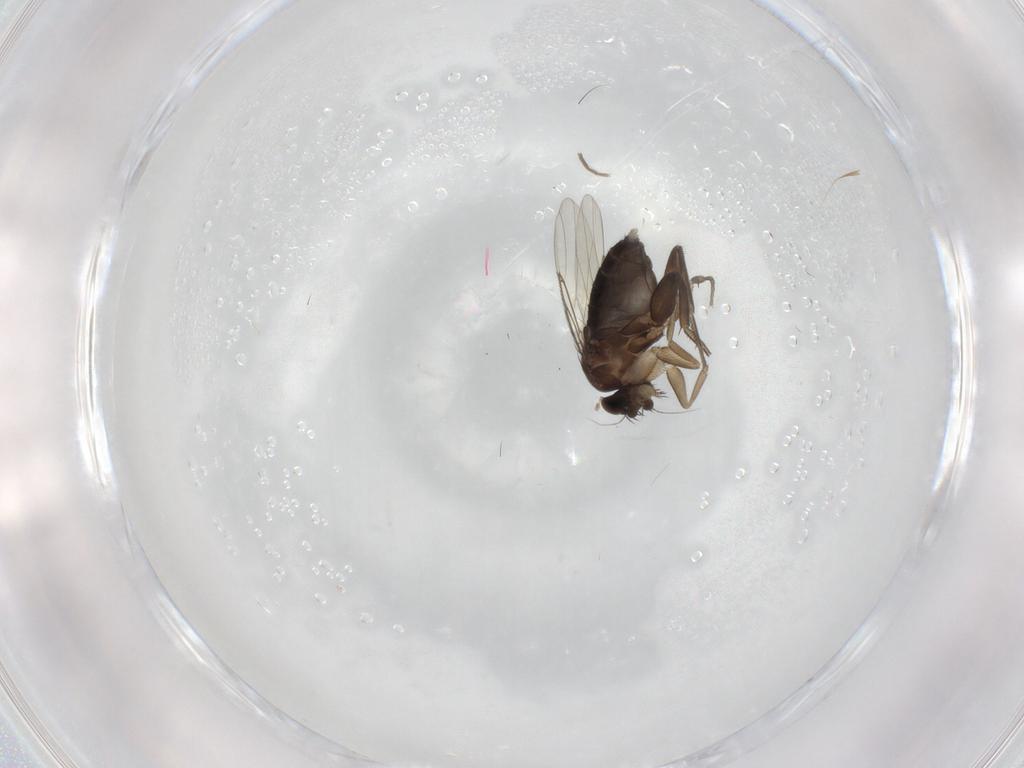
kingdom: Animalia
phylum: Arthropoda
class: Insecta
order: Diptera
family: Phoridae
